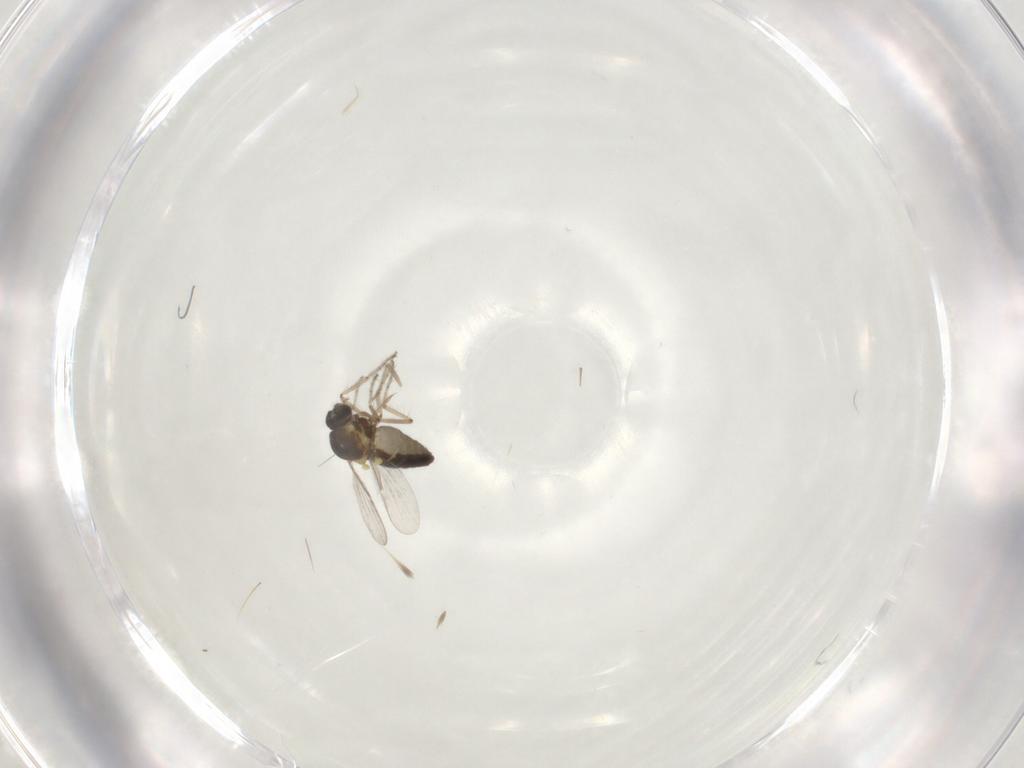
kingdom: Animalia
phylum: Arthropoda
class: Insecta
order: Diptera
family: Ceratopogonidae
